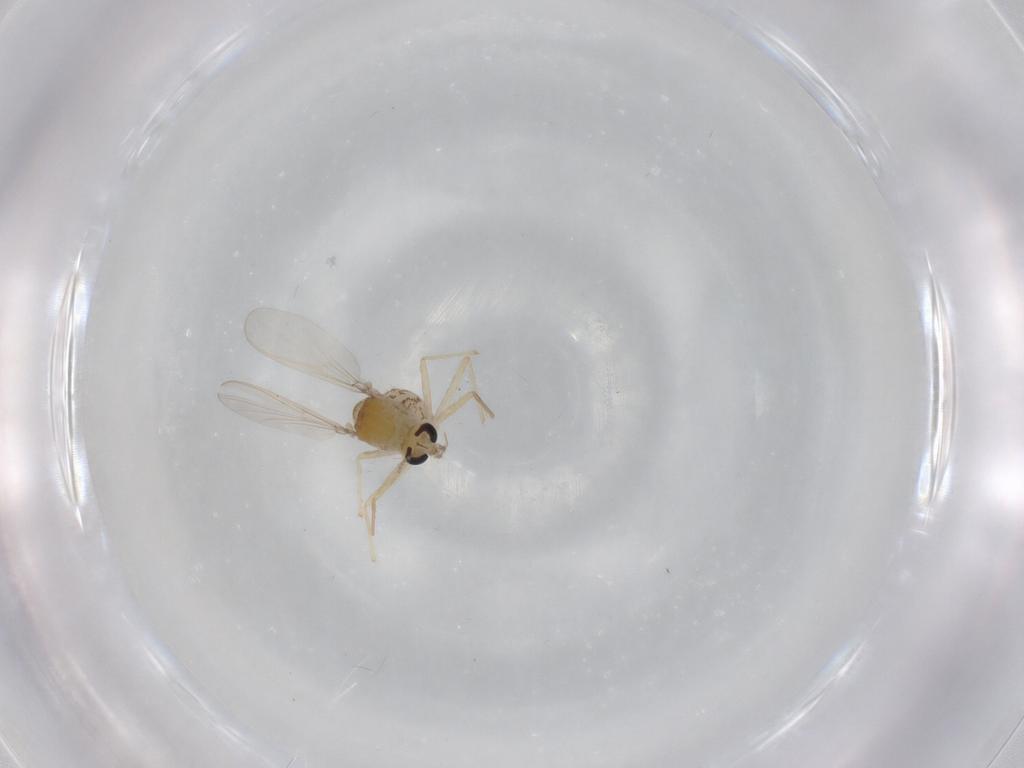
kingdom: Animalia
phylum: Arthropoda
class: Insecta
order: Diptera
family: Chironomidae
